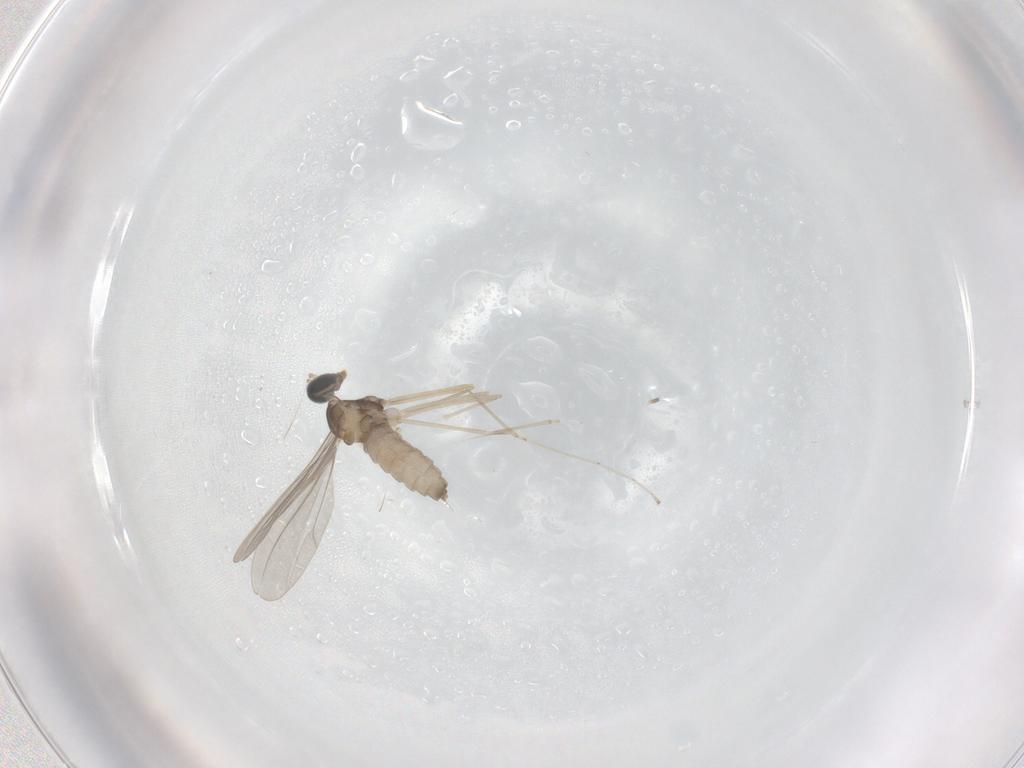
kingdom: Animalia
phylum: Arthropoda
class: Insecta
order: Diptera
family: Cecidomyiidae
